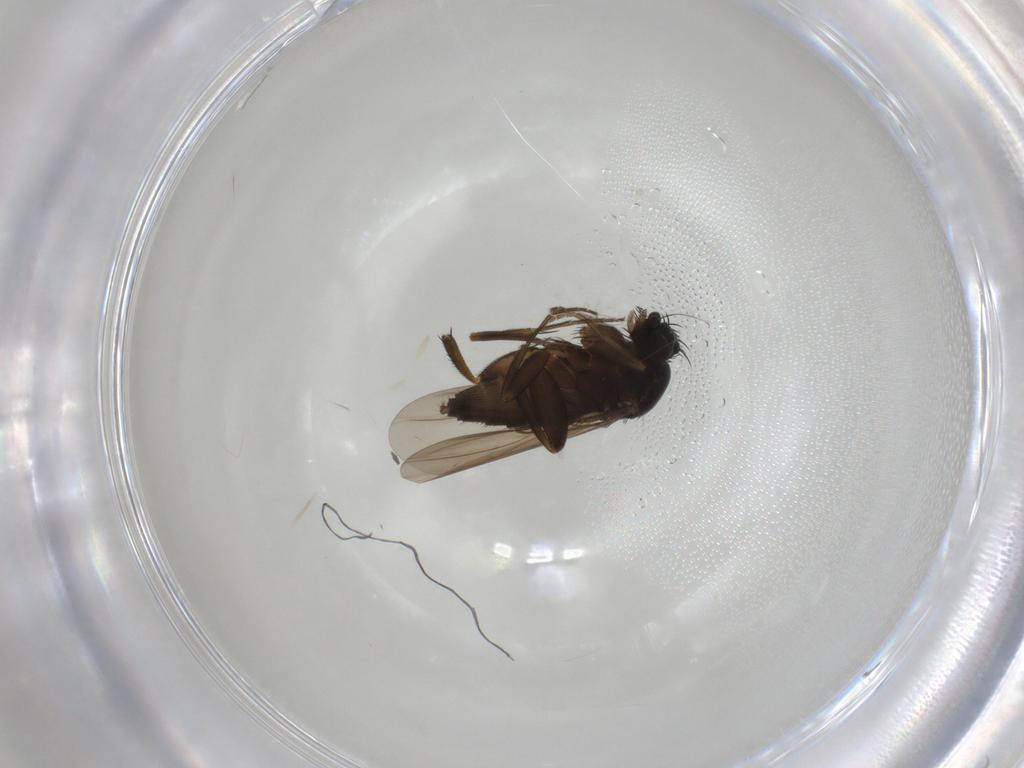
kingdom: Animalia
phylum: Arthropoda
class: Insecta
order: Diptera
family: Phoridae
